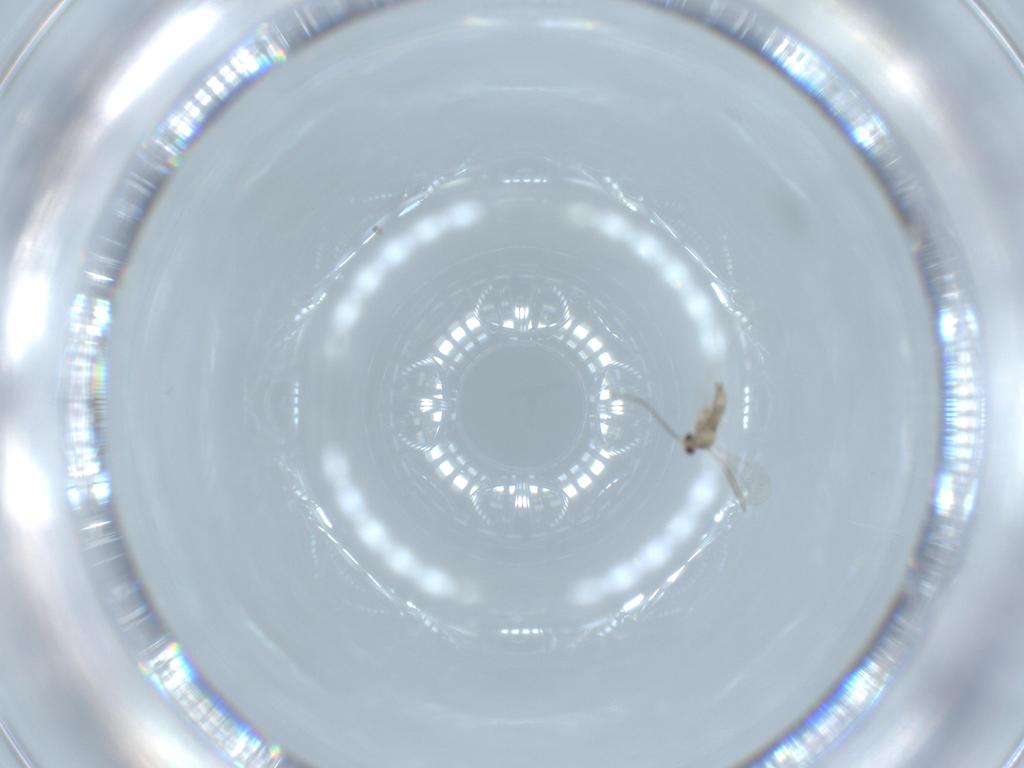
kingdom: Animalia
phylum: Arthropoda
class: Insecta
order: Diptera
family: Cecidomyiidae
